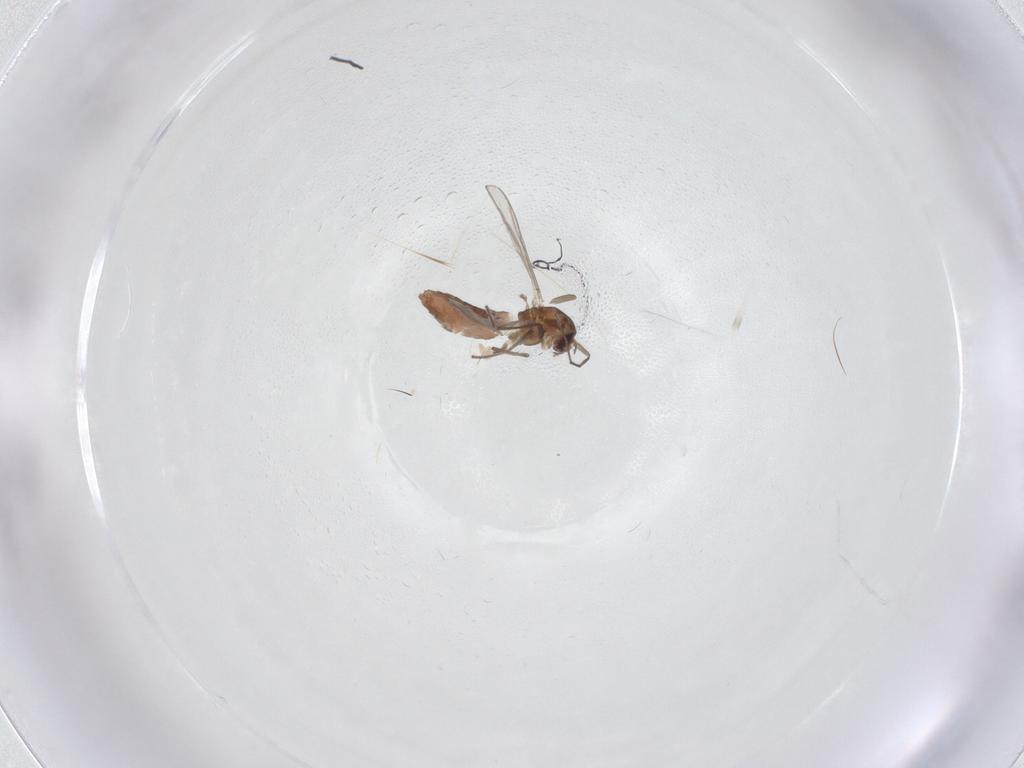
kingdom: Animalia
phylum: Arthropoda
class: Insecta
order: Diptera
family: Chironomidae
